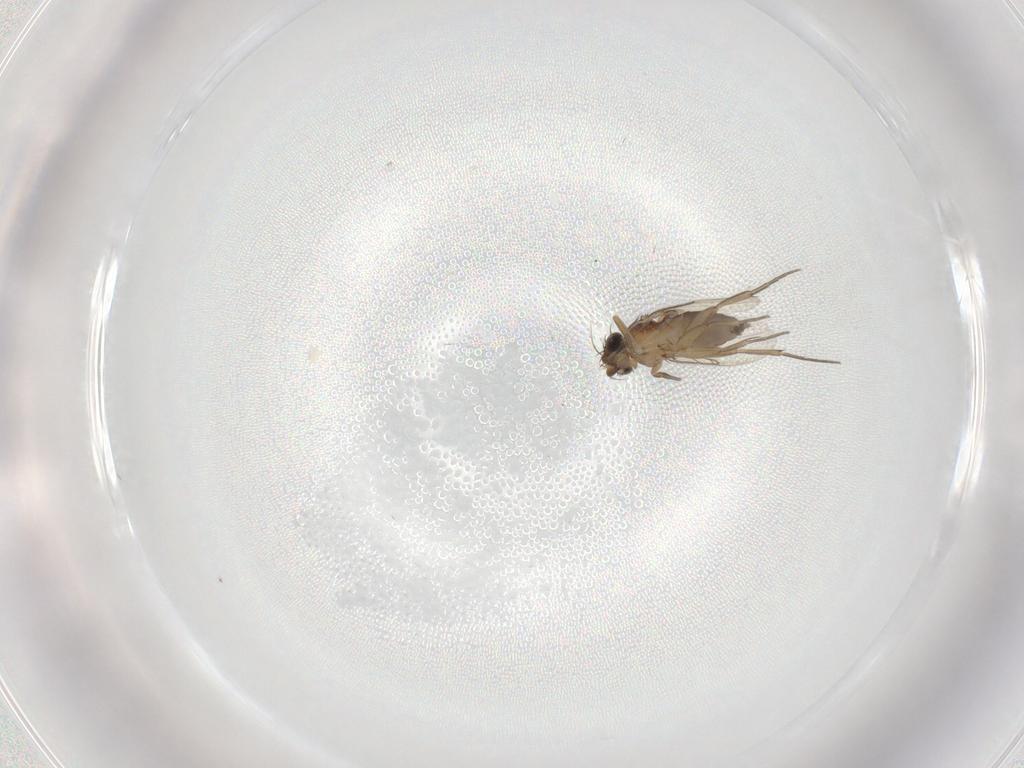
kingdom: Animalia
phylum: Arthropoda
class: Insecta
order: Diptera
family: Phoridae
